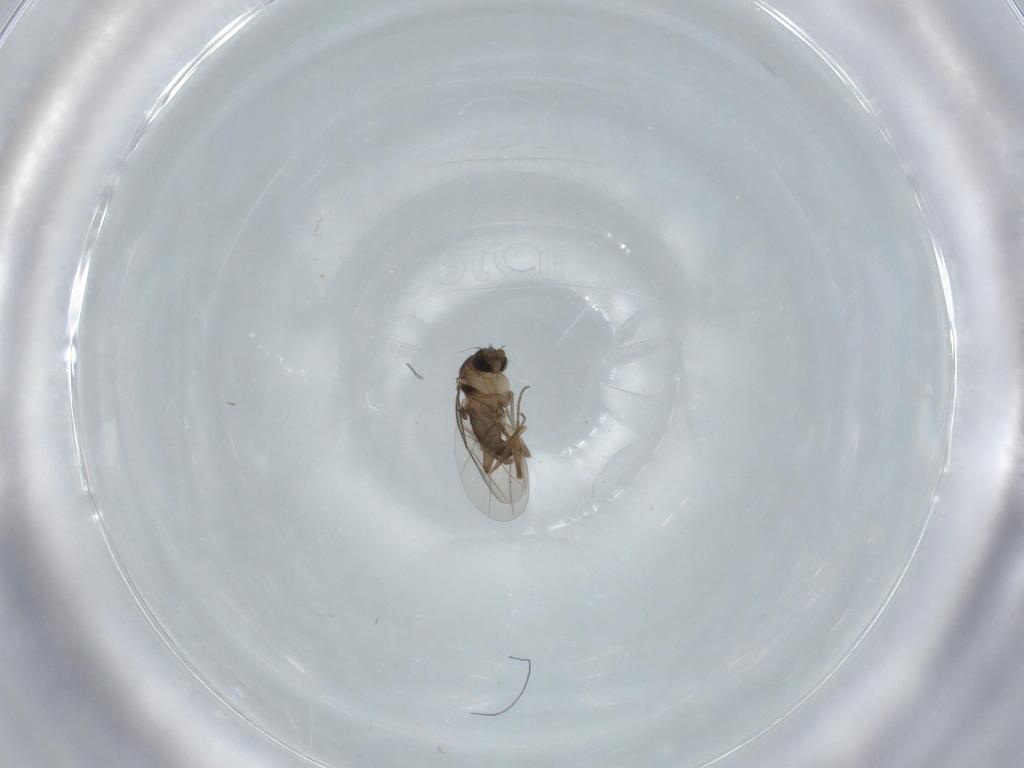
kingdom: Animalia
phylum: Arthropoda
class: Insecta
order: Diptera
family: Phoridae
